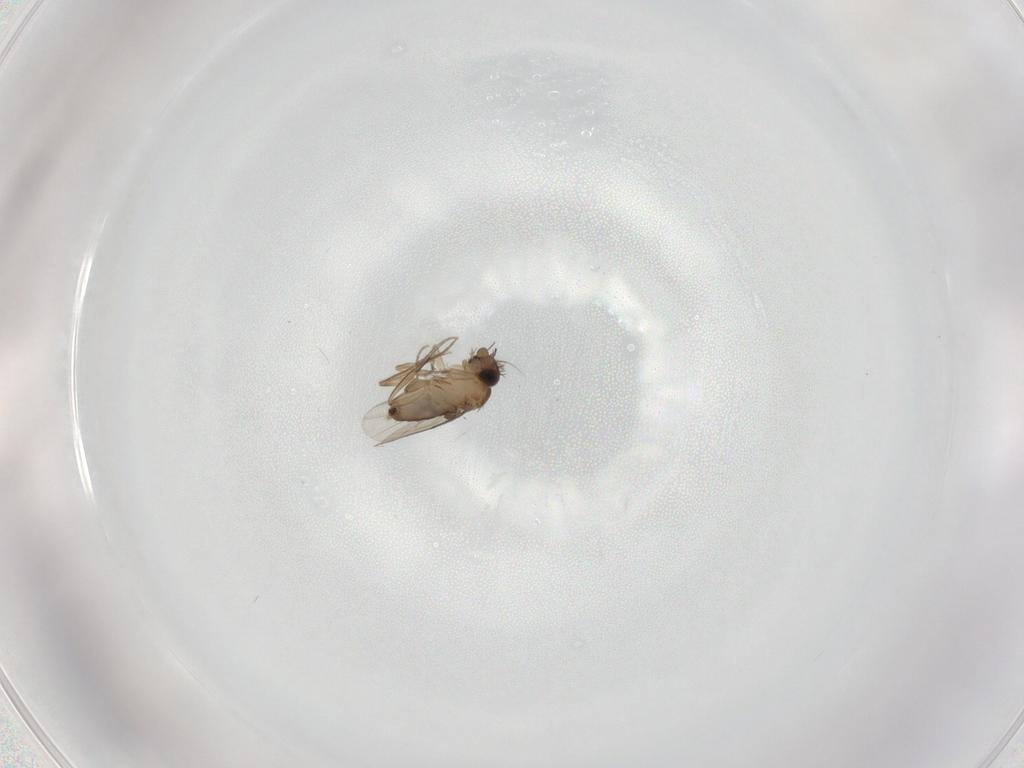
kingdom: Animalia
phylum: Arthropoda
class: Insecta
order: Diptera
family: Phoridae
